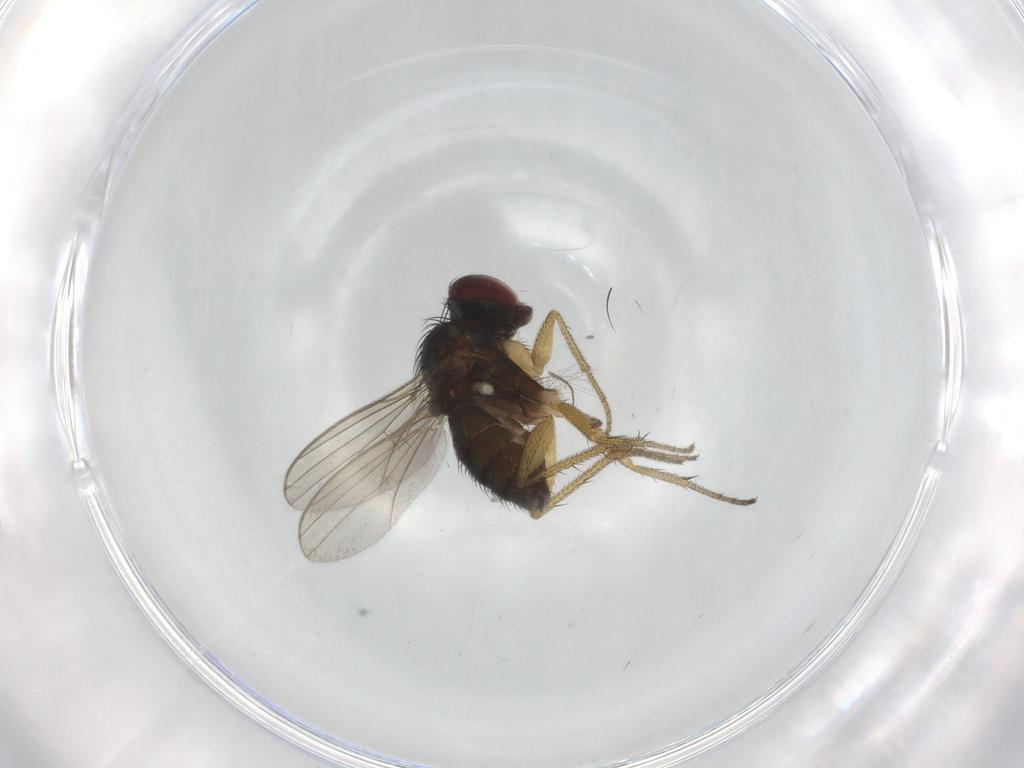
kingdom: Animalia
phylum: Arthropoda
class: Insecta
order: Diptera
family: Chironomidae
